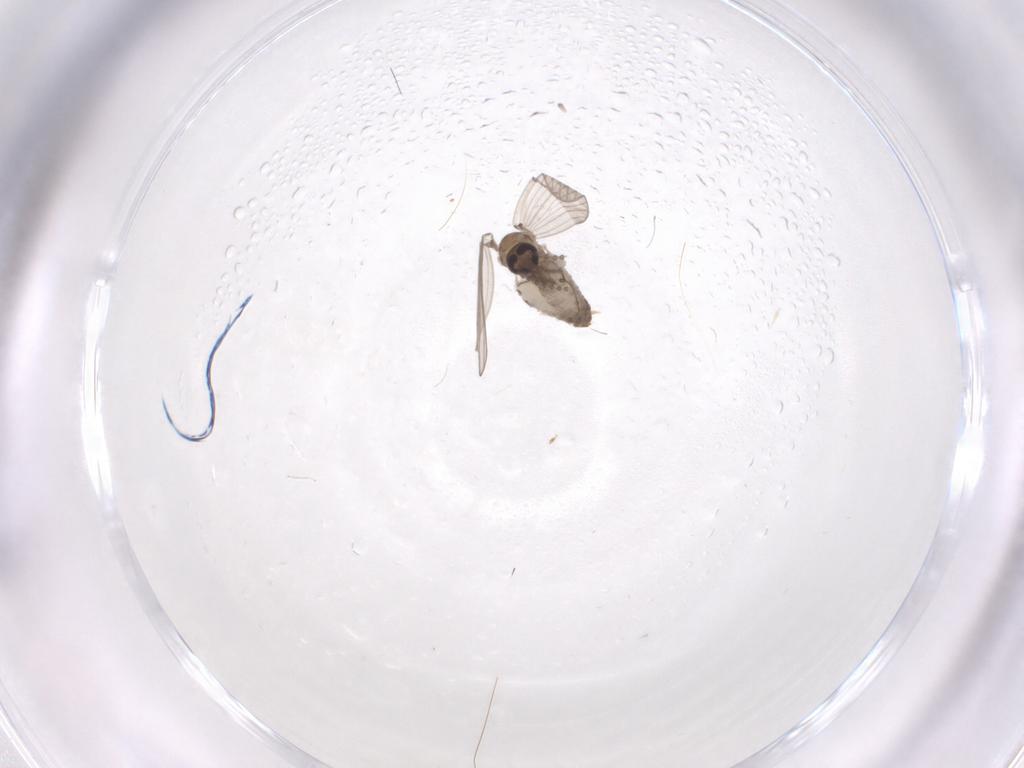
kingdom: Animalia
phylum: Arthropoda
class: Insecta
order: Diptera
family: Psychodidae
